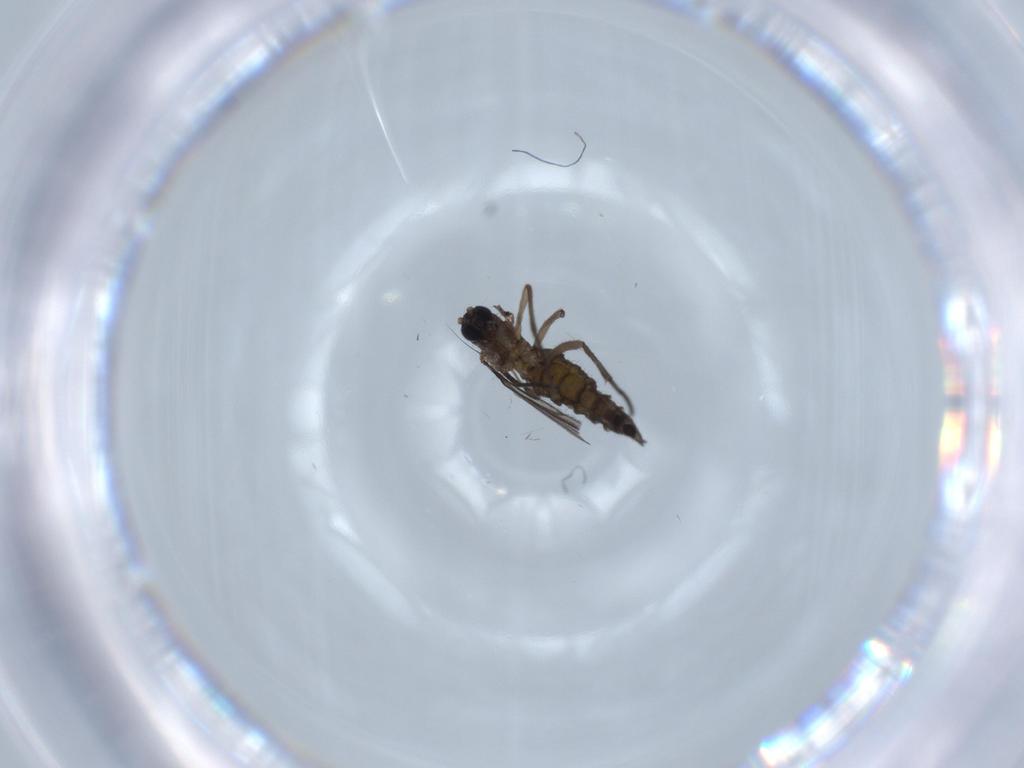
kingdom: Animalia
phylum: Arthropoda
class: Insecta
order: Diptera
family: Sciaridae
